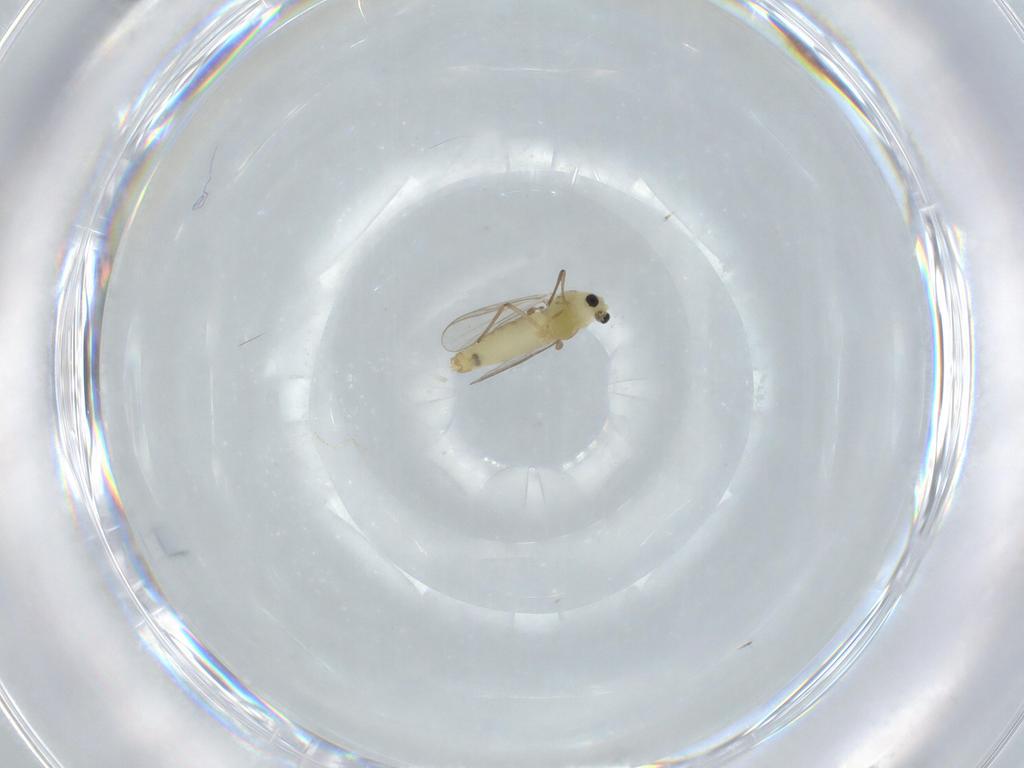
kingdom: Animalia
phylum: Arthropoda
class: Insecta
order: Diptera
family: Chironomidae
